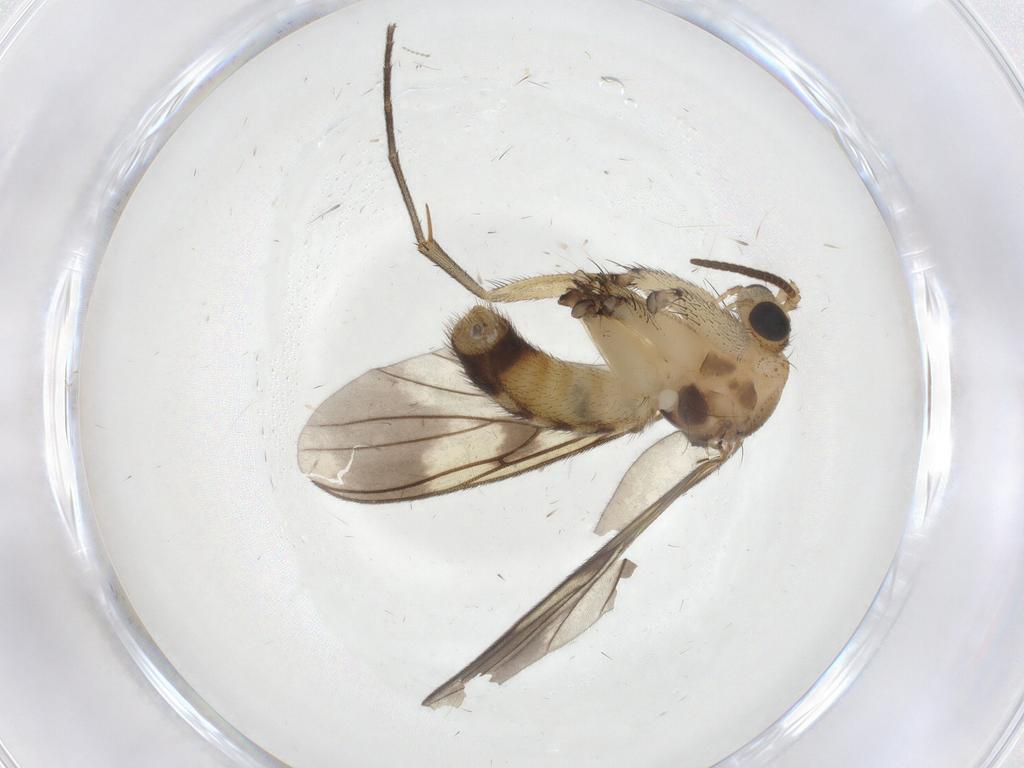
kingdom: Animalia
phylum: Arthropoda
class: Insecta
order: Diptera
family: Mycetophilidae
